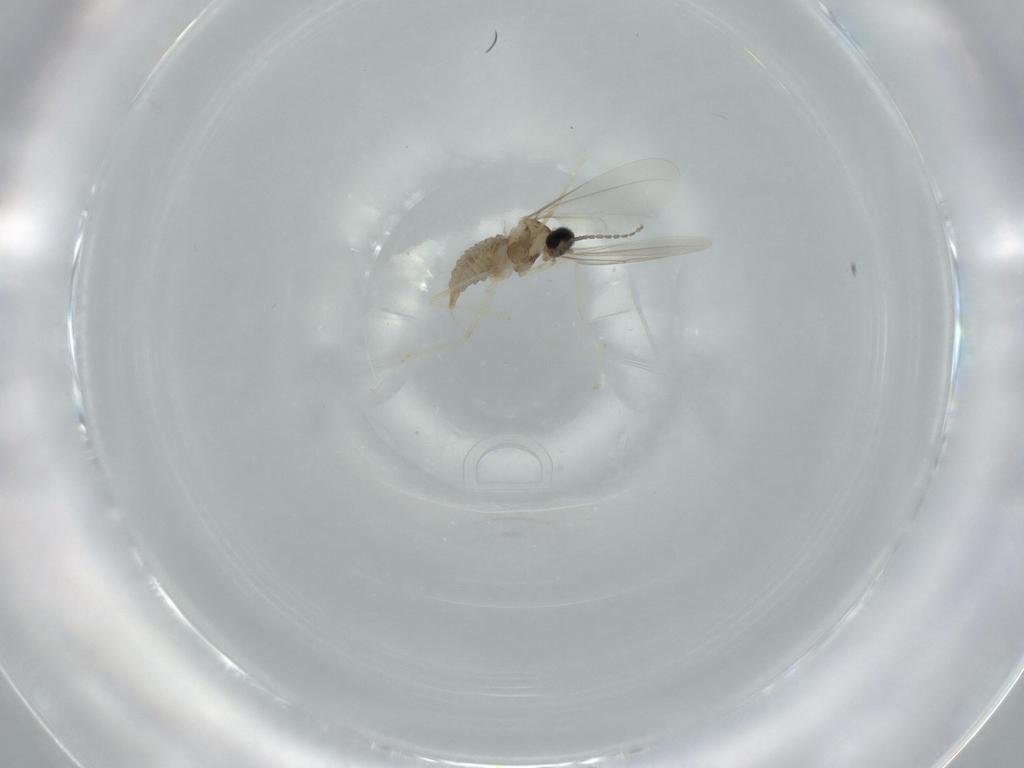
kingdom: Animalia
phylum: Arthropoda
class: Insecta
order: Diptera
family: Cecidomyiidae
